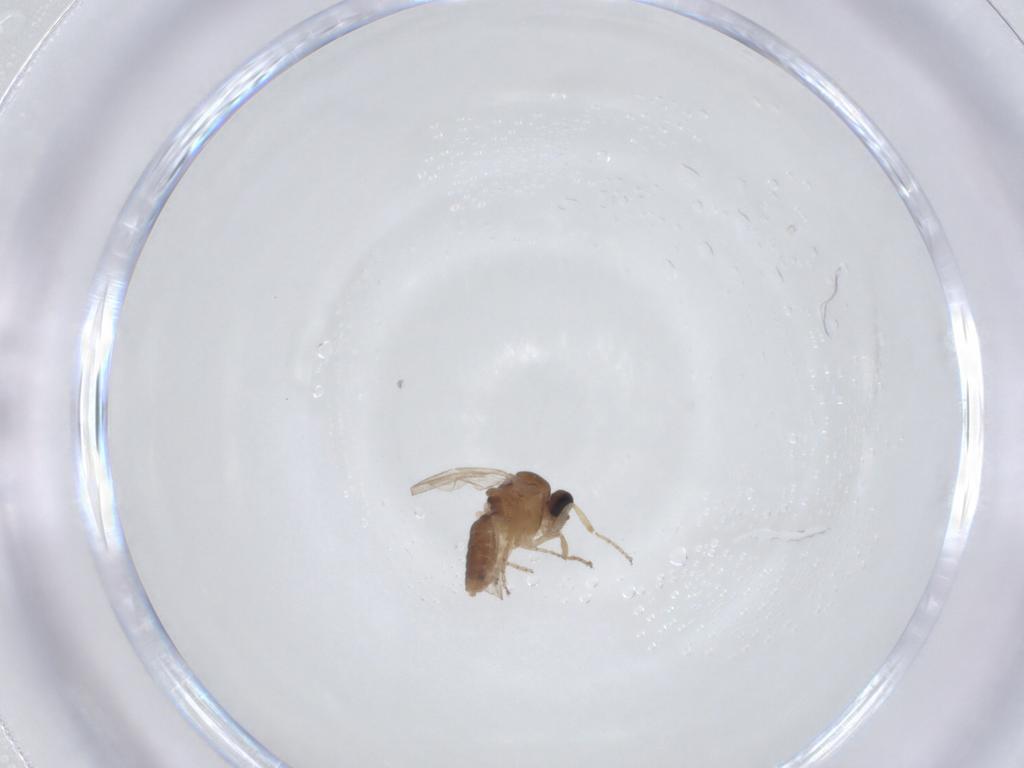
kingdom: Animalia
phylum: Arthropoda
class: Insecta
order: Diptera
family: Ceratopogonidae
